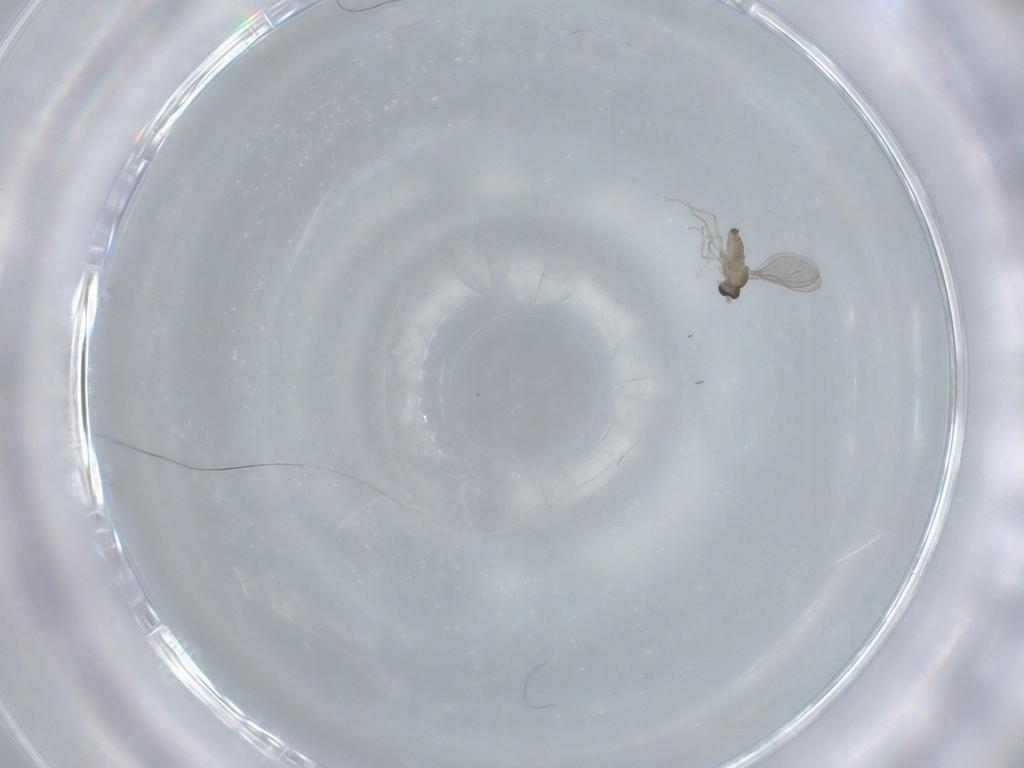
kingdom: Animalia
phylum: Arthropoda
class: Insecta
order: Diptera
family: Cecidomyiidae
